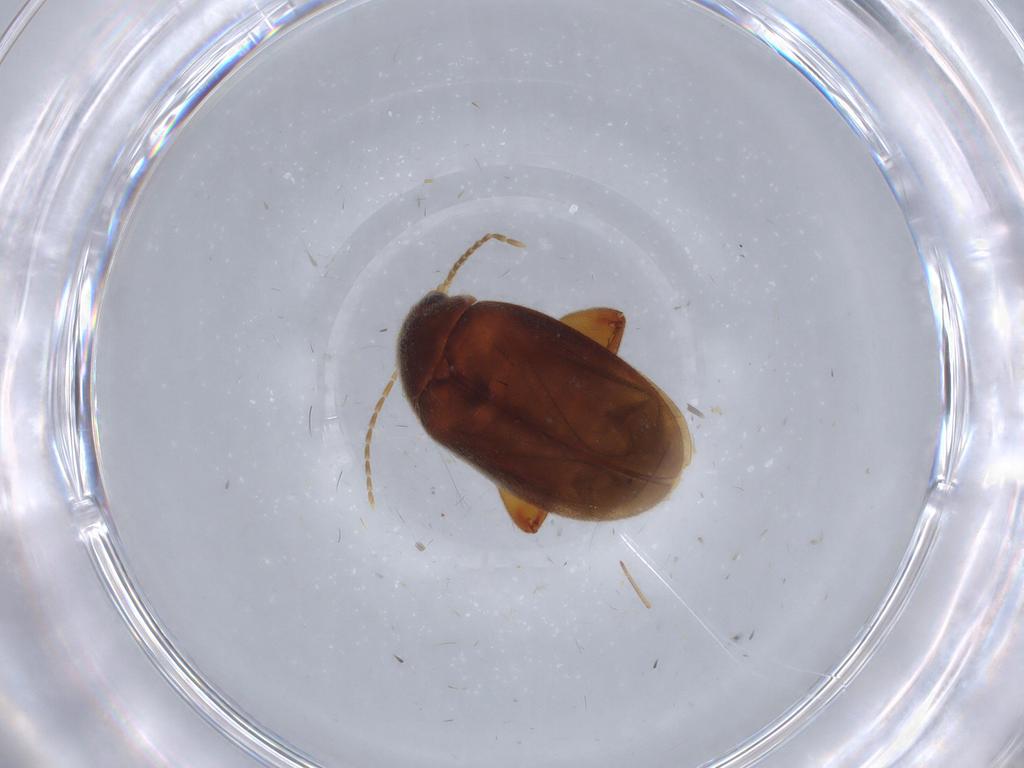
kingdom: Animalia
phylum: Arthropoda
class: Insecta
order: Coleoptera
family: Scirtidae
